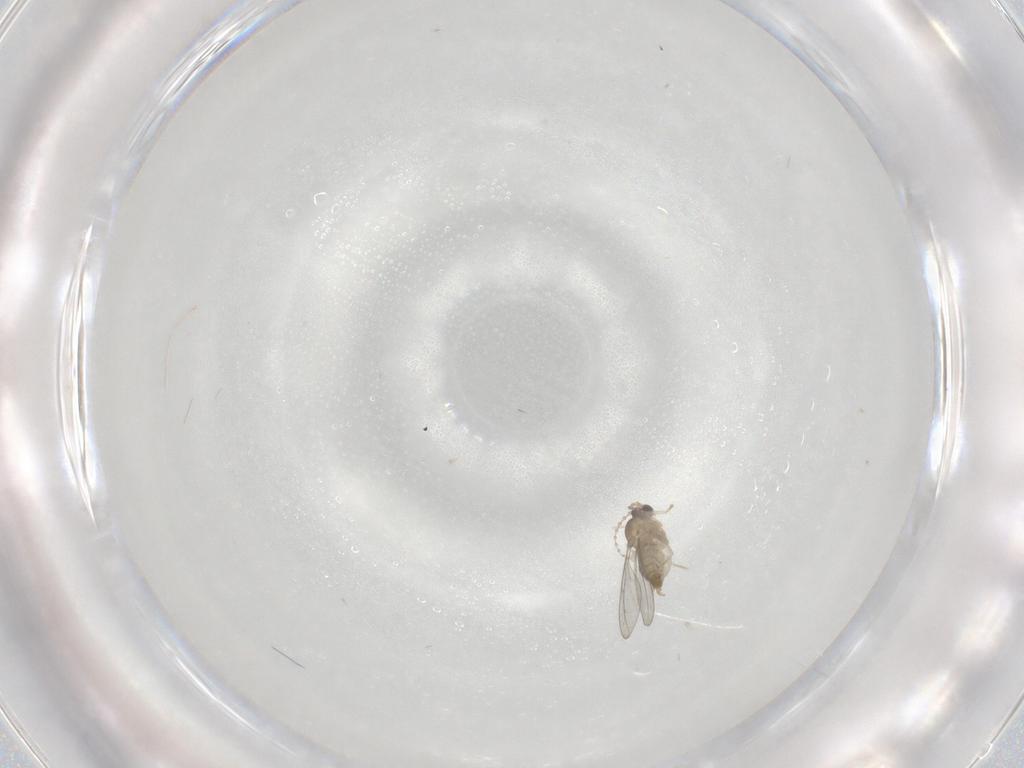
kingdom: Animalia
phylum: Arthropoda
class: Insecta
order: Diptera
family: Cecidomyiidae
